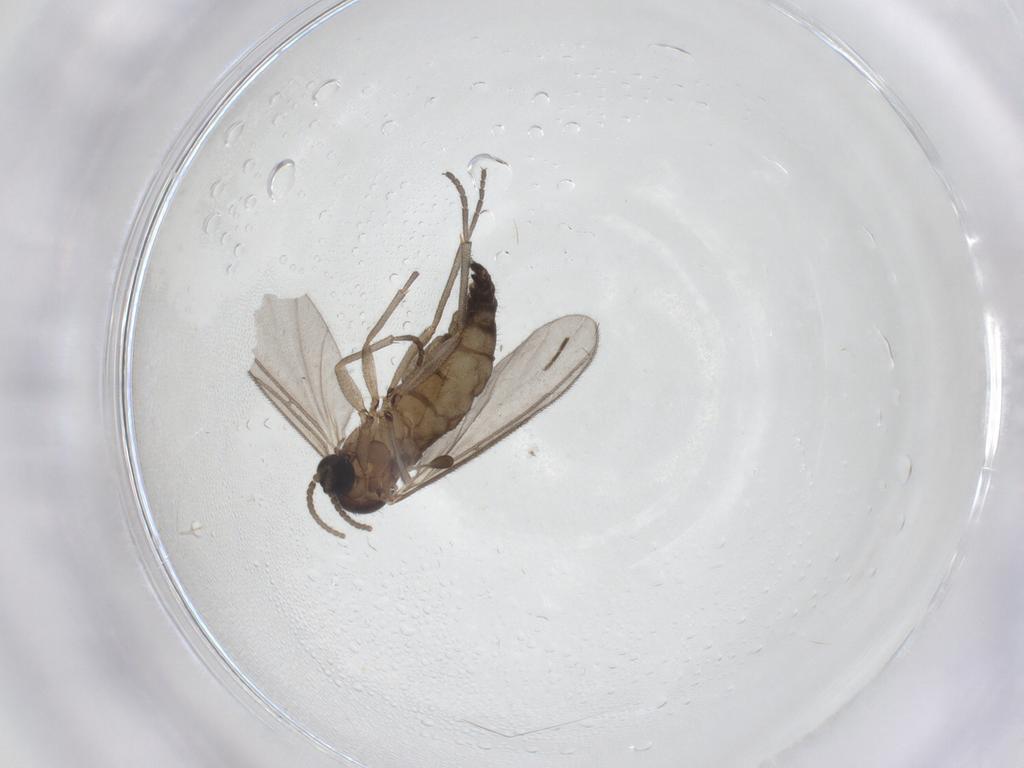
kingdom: Animalia
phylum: Arthropoda
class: Insecta
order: Diptera
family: Sciaridae
